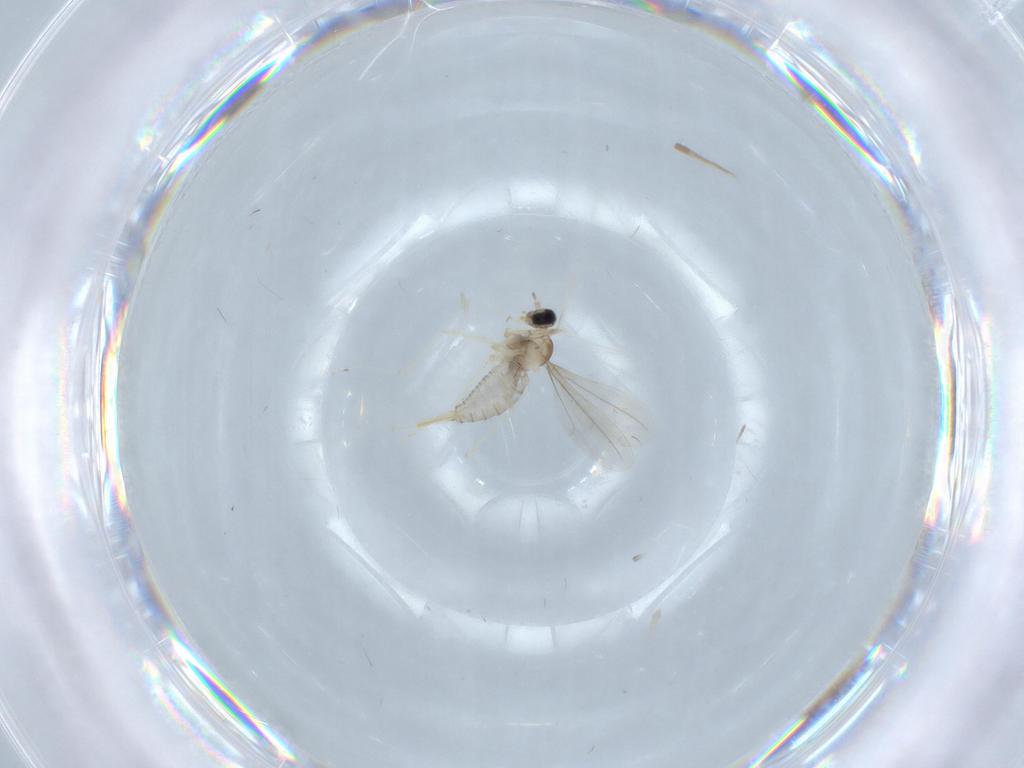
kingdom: Animalia
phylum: Arthropoda
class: Insecta
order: Diptera
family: Cecidomyiidae
